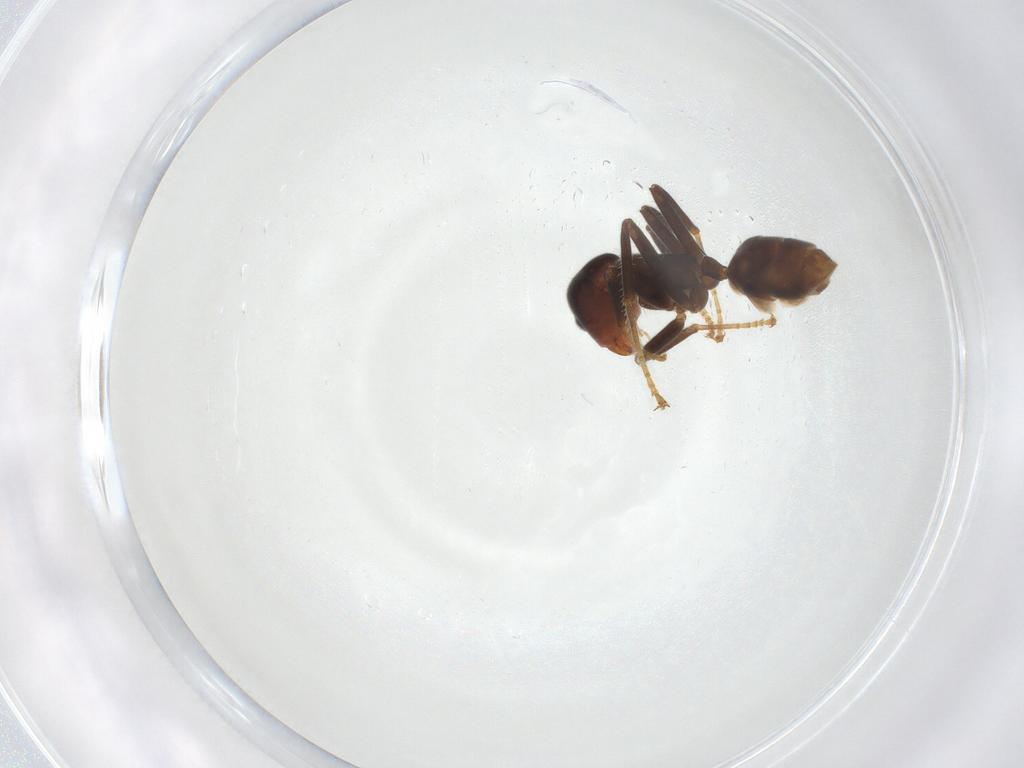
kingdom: Animalia
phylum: Arthropoda
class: Insecta
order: Hymenoptera
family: Formicidae
